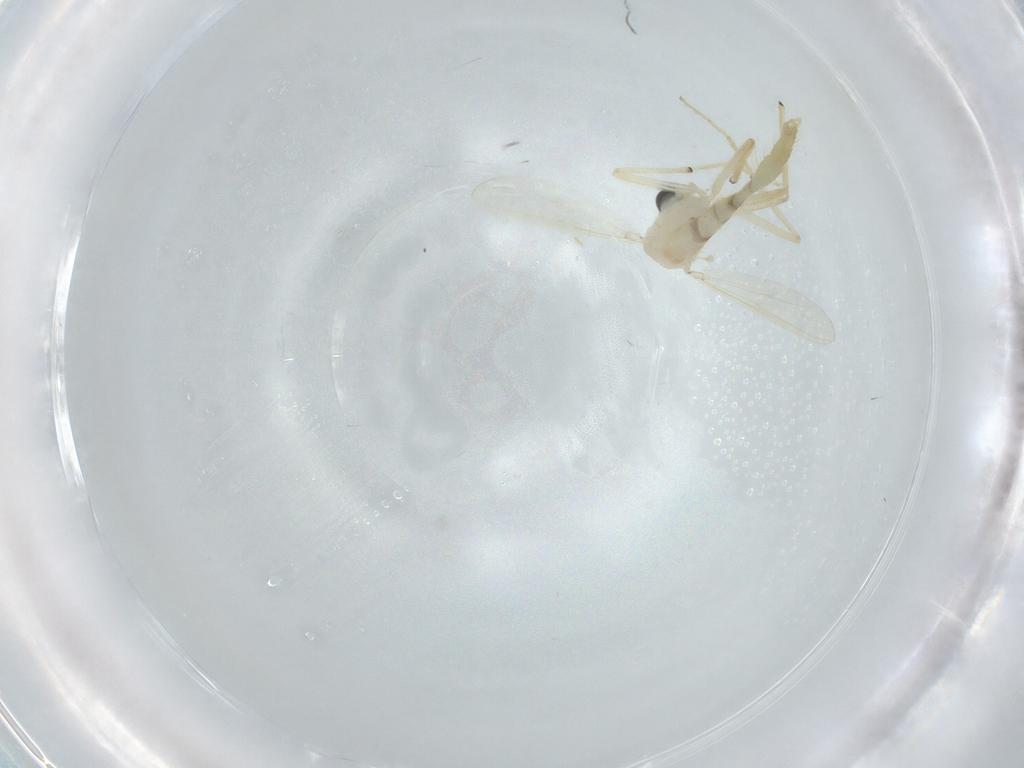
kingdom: Animalia
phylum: Arthropoda
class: Insecta
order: Diptera
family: Chironomidae
